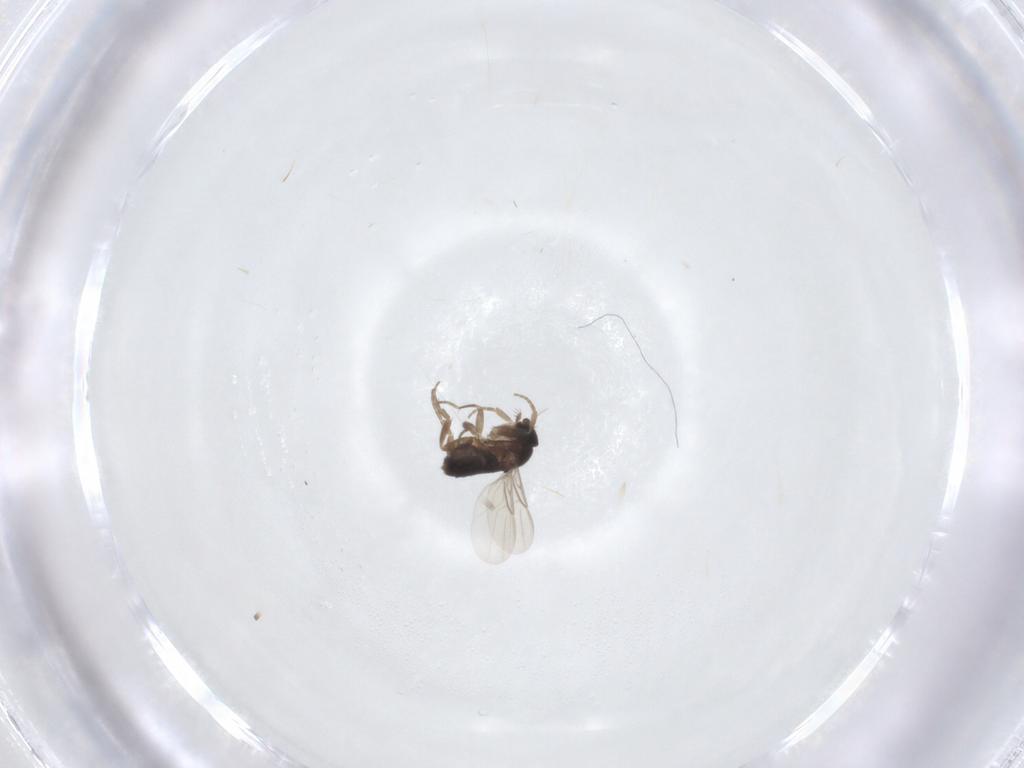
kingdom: Animalia
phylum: Arthropoda
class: Insecta
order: Diptera
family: Phoridae
